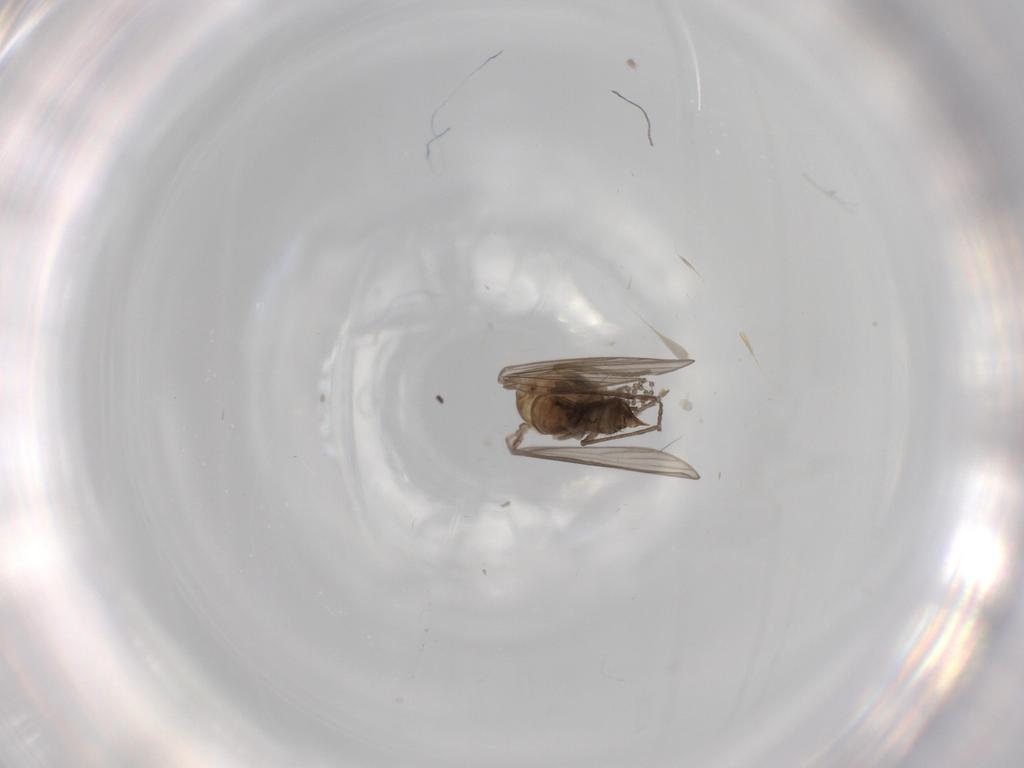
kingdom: Animalia
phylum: Arthropoda
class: Insecta
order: Diptera
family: Psychodidae
